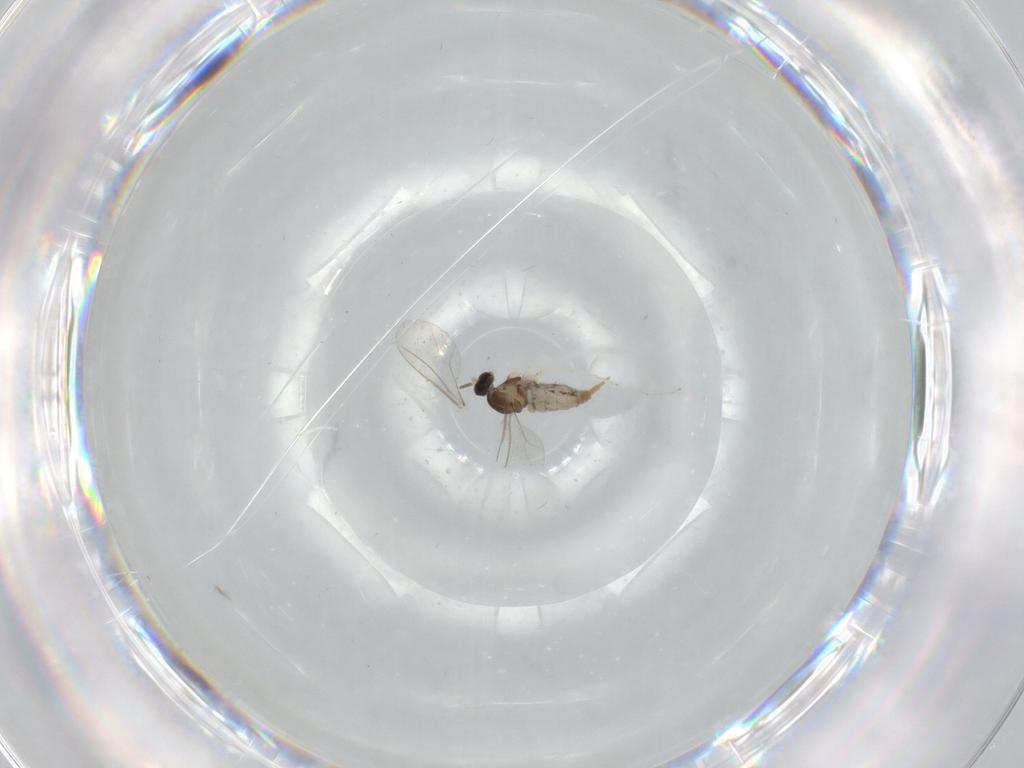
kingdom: Animalia
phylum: Arthropoda
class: Insecta
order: Diptera
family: Cecidomyiidae
